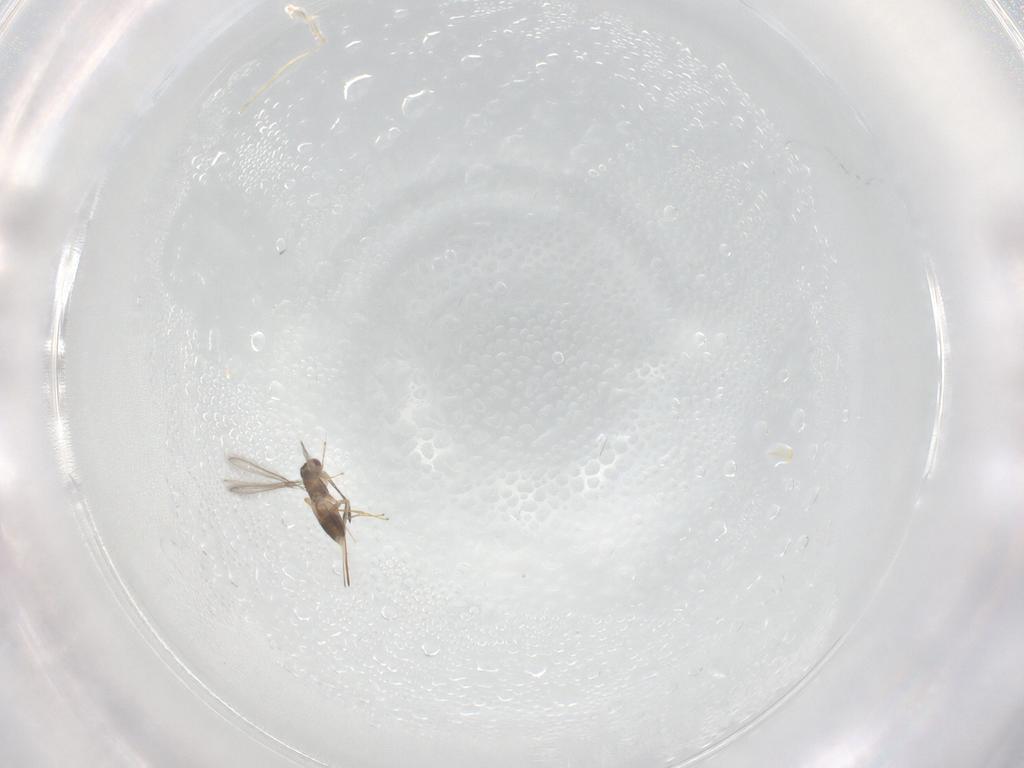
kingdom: Animalia
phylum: Arthropoda
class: Insecta
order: Hymenoptera
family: Mymaridae
